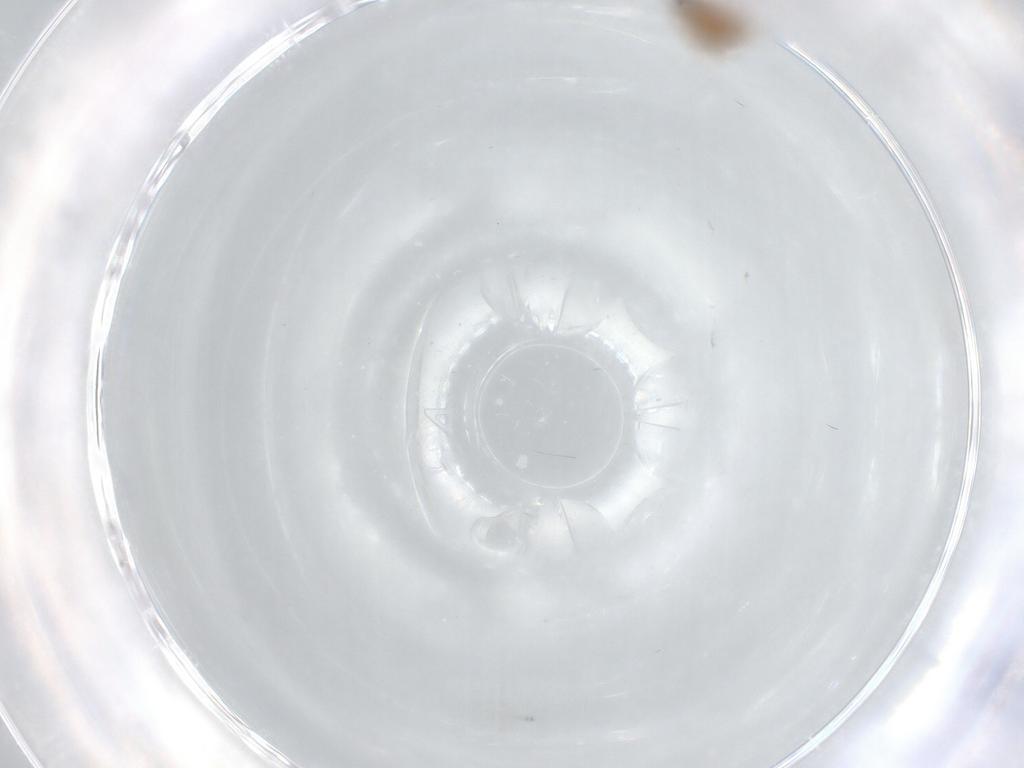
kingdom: Animalia
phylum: Arthropoda
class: Insecta
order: Diptera
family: Psychodidae
